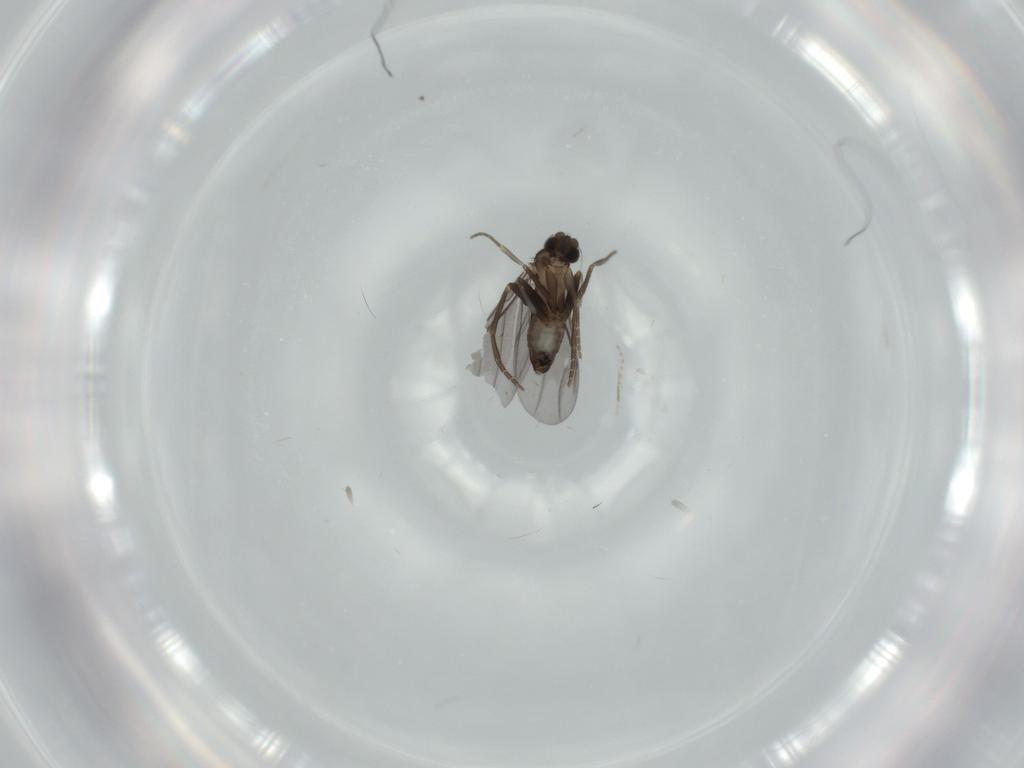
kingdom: Animalia
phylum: Arthropoda
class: Insecta
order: Diptera
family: Cecidomyiidae
